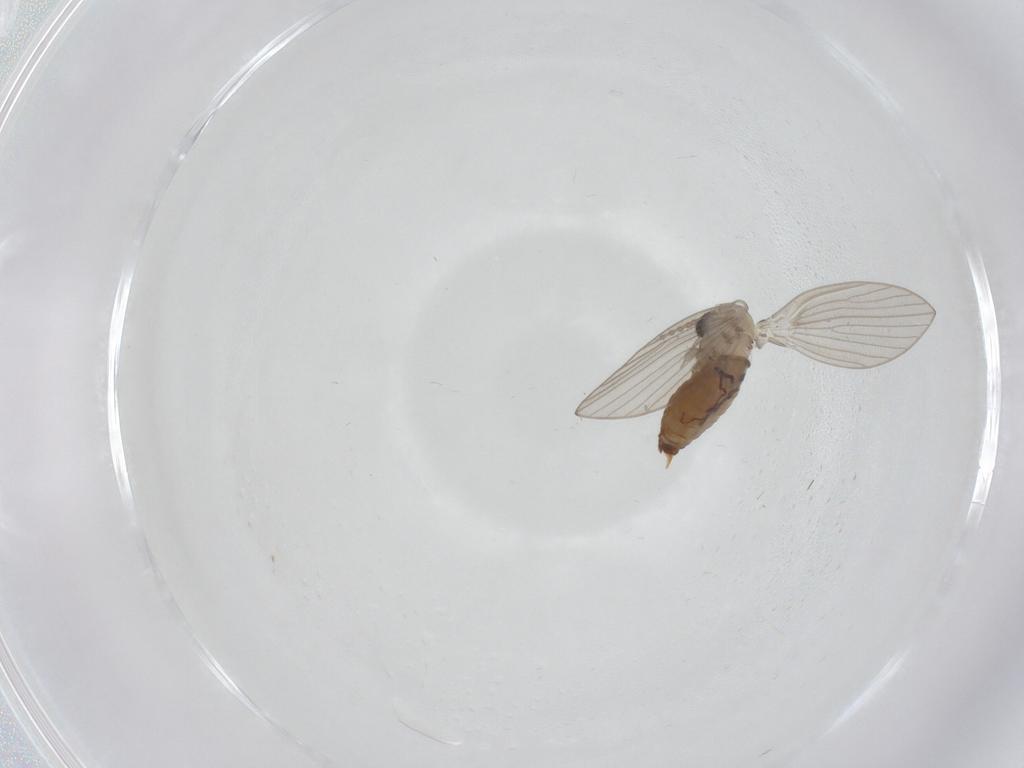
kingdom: Animalia
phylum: Arthropoda
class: Insecta
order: Diptera
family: Psychodidae
